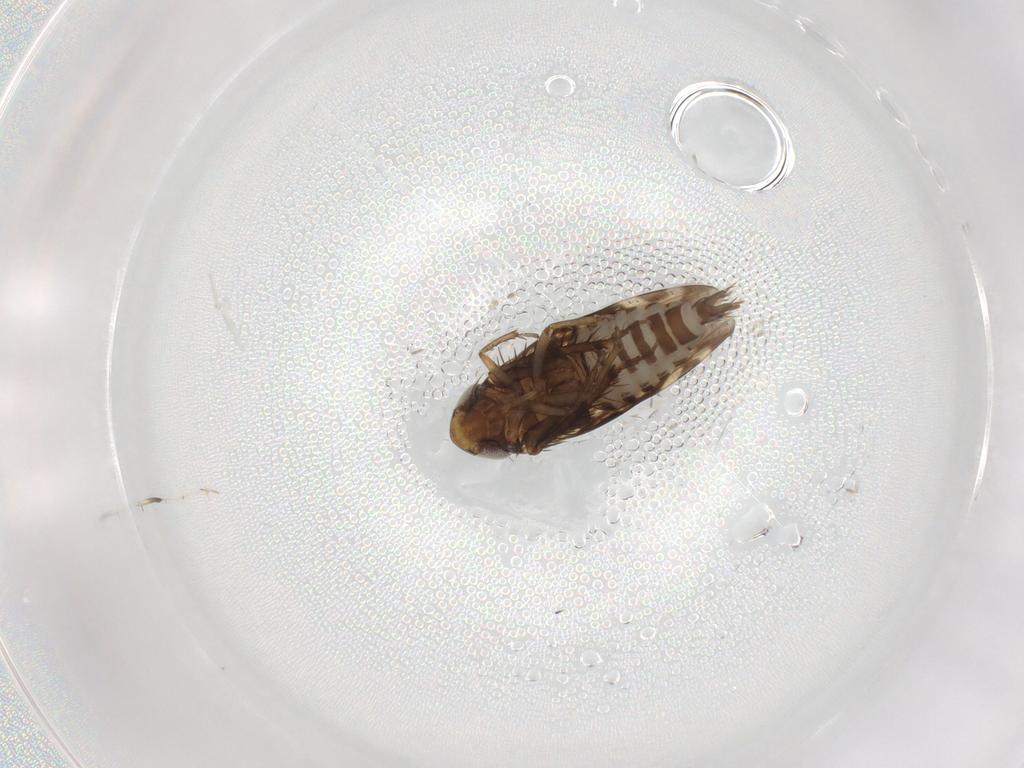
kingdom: Animalia
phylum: Arthropoda
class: Insecta
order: Hemiptera
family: Cicadellidae
